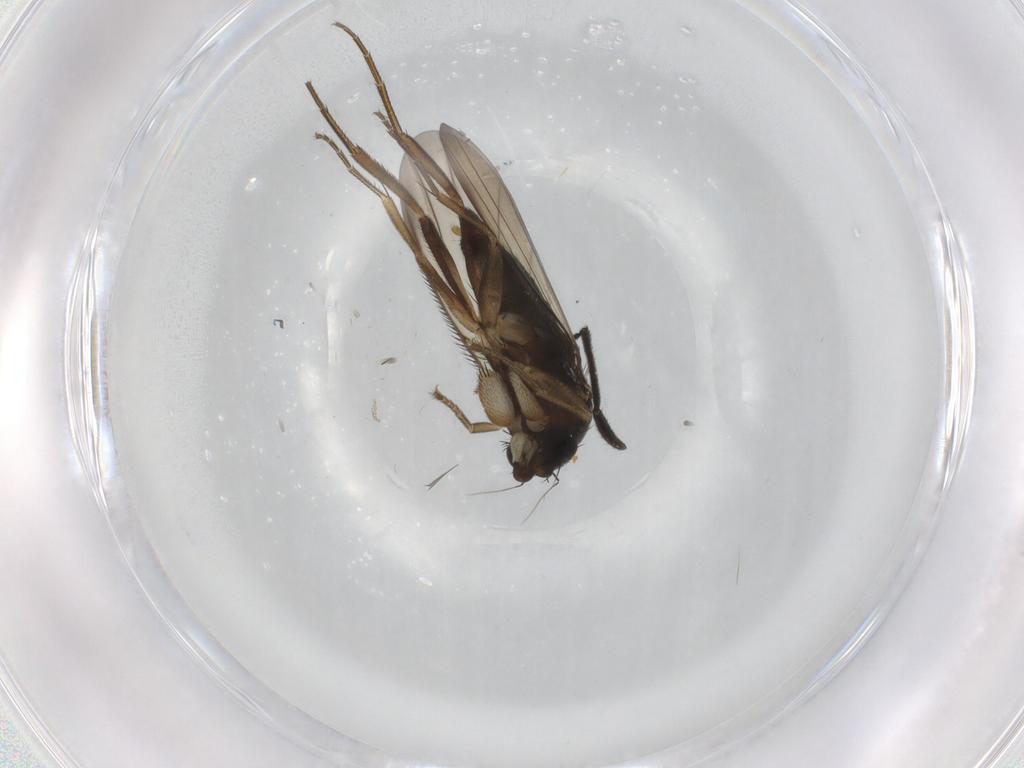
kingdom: Animalia
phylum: Arthropoda
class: Insecta
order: Diptera
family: Phoridae
